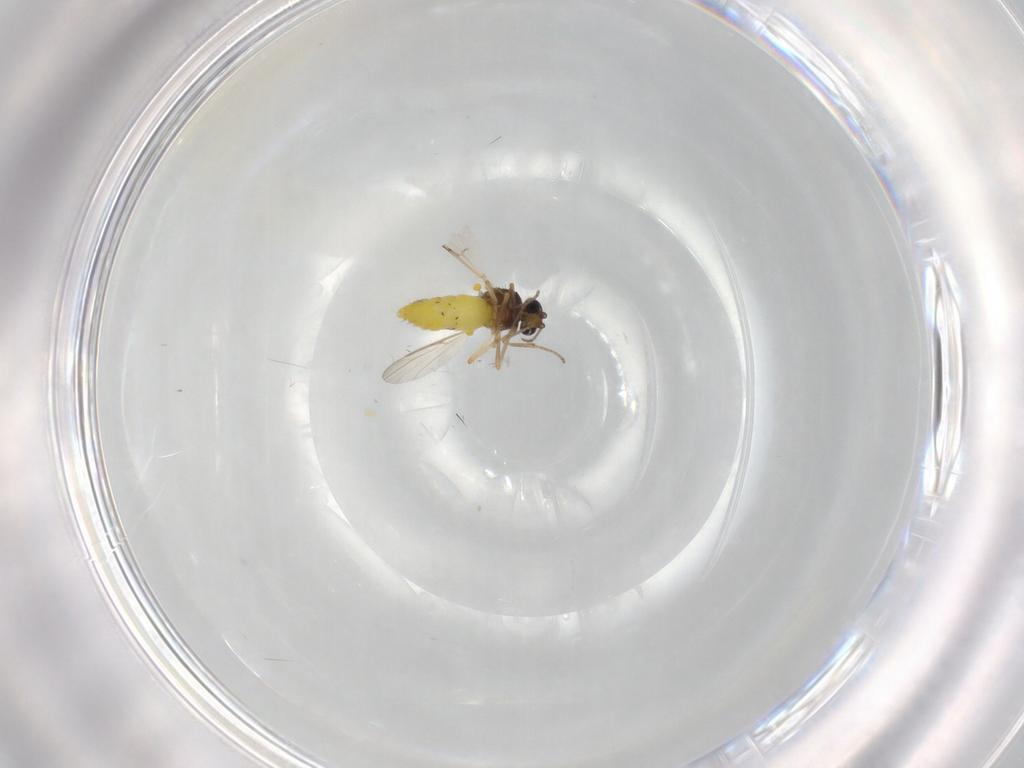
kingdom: Animalia
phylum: Arthropoda
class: Insecta
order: Diptera
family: Ceratopogonidae
